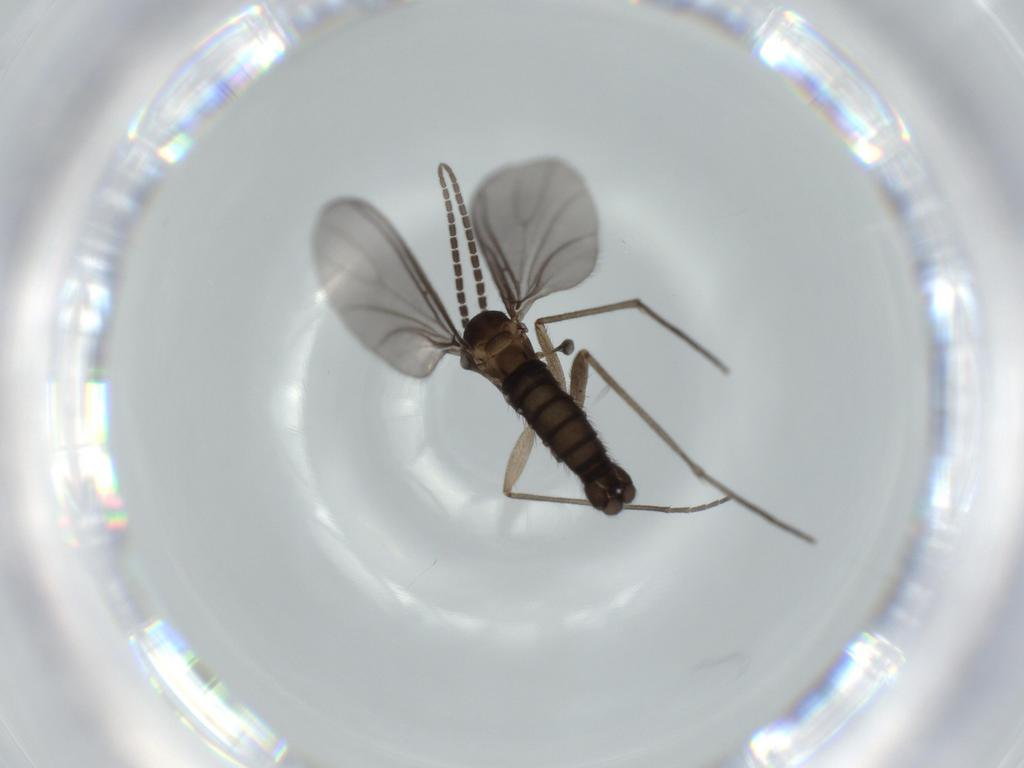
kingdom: Animalia
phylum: Arthropoda
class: Insecta
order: Diptera
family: Sciaridae
